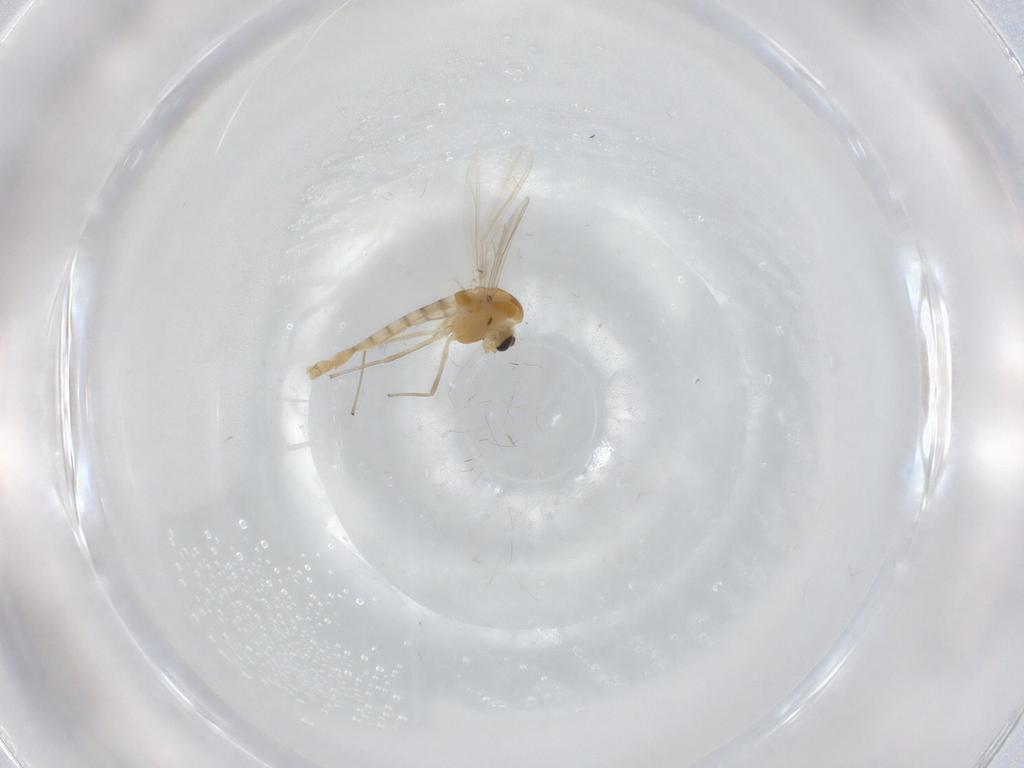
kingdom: Animalia
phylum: Arthropoda
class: Insecta
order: Diptera
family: Chironomidae
